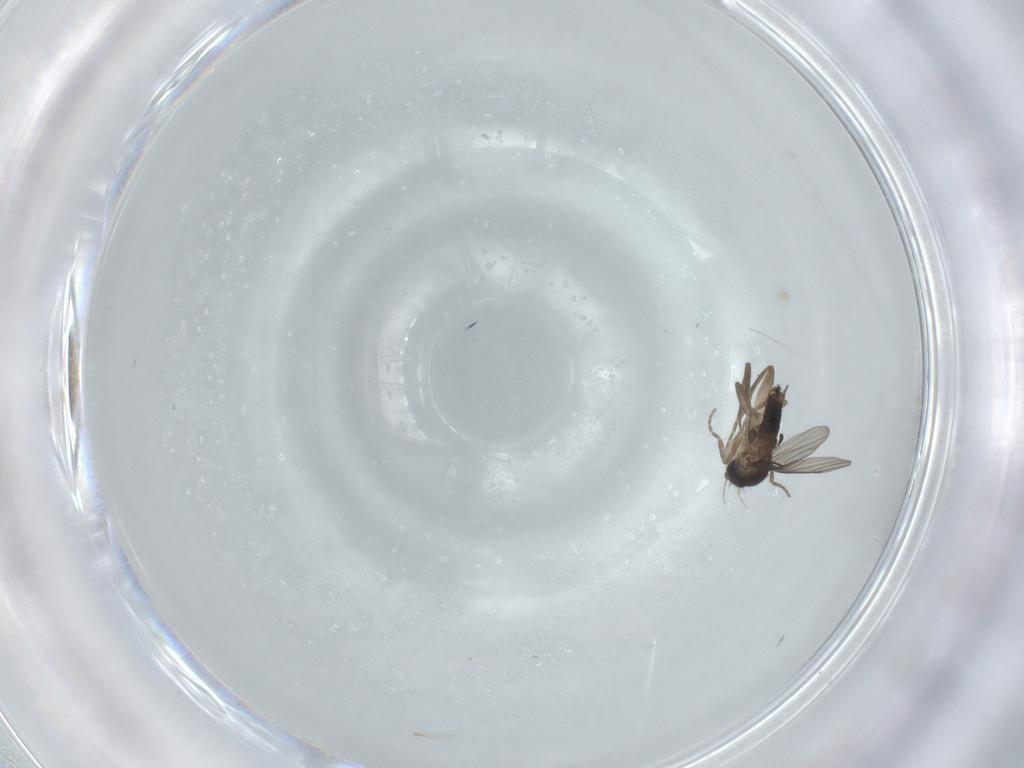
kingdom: Animalia
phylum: Arthropoda
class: Insecta
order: Diptera
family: Phoridae
